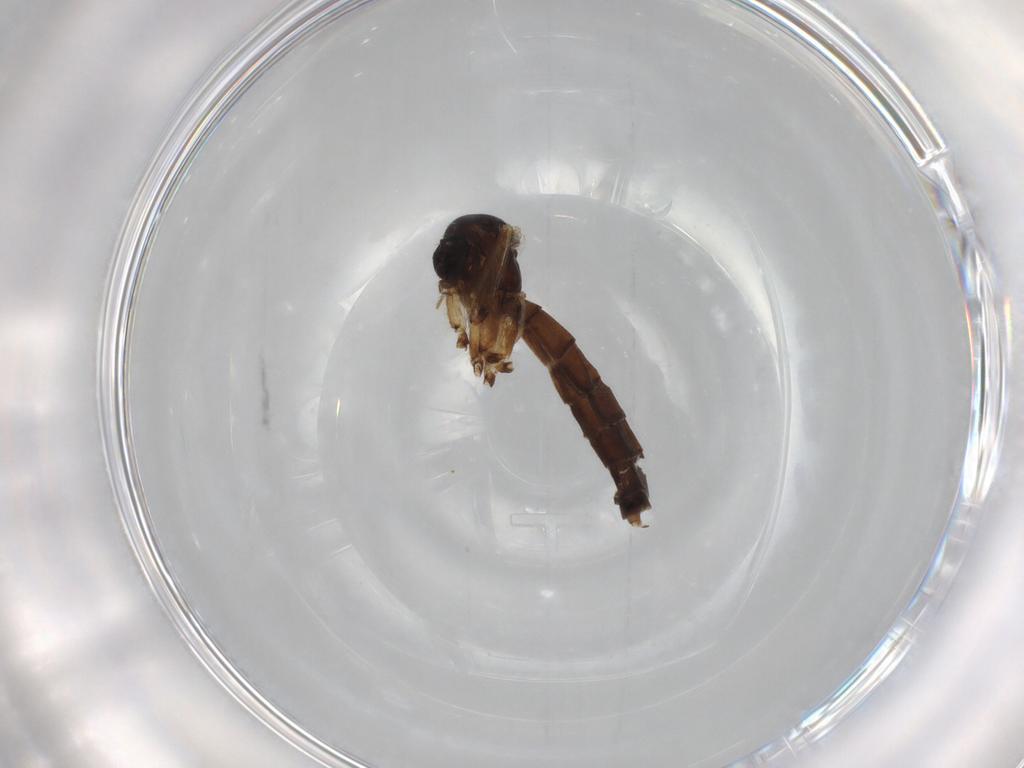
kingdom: Animalia
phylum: Arthropoda
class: Insecta
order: Diptera
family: Mycetophilidae
